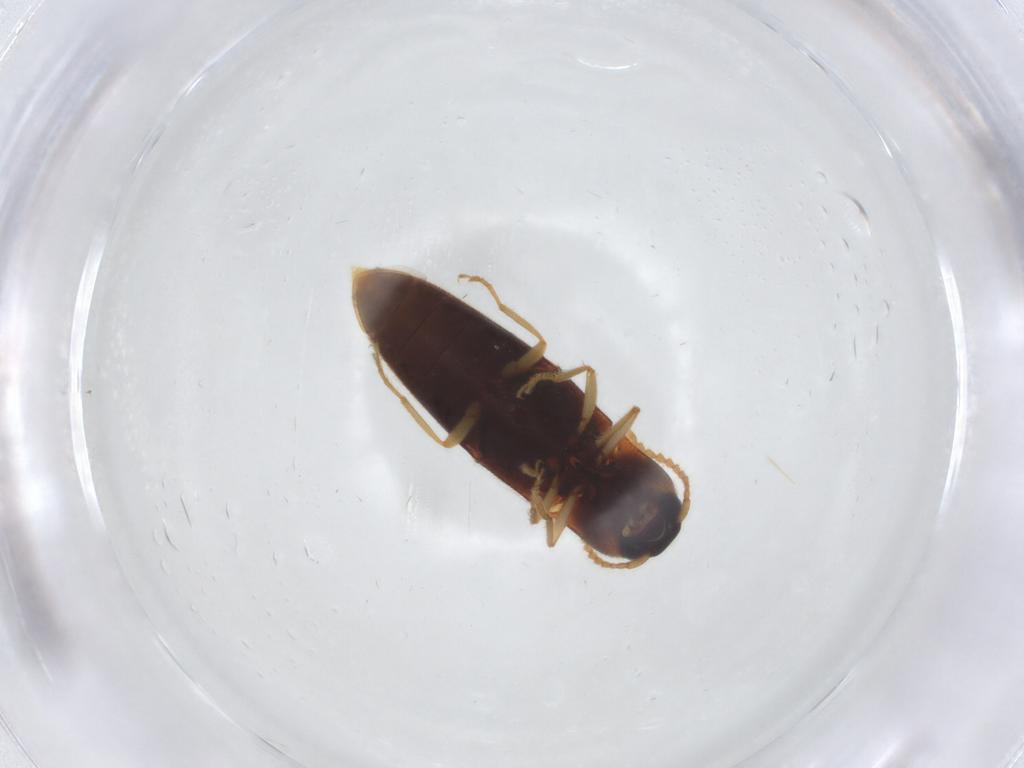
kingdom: Animalia
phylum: Arthropoda
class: Insecta
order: Coleoptera
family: Elateridae
